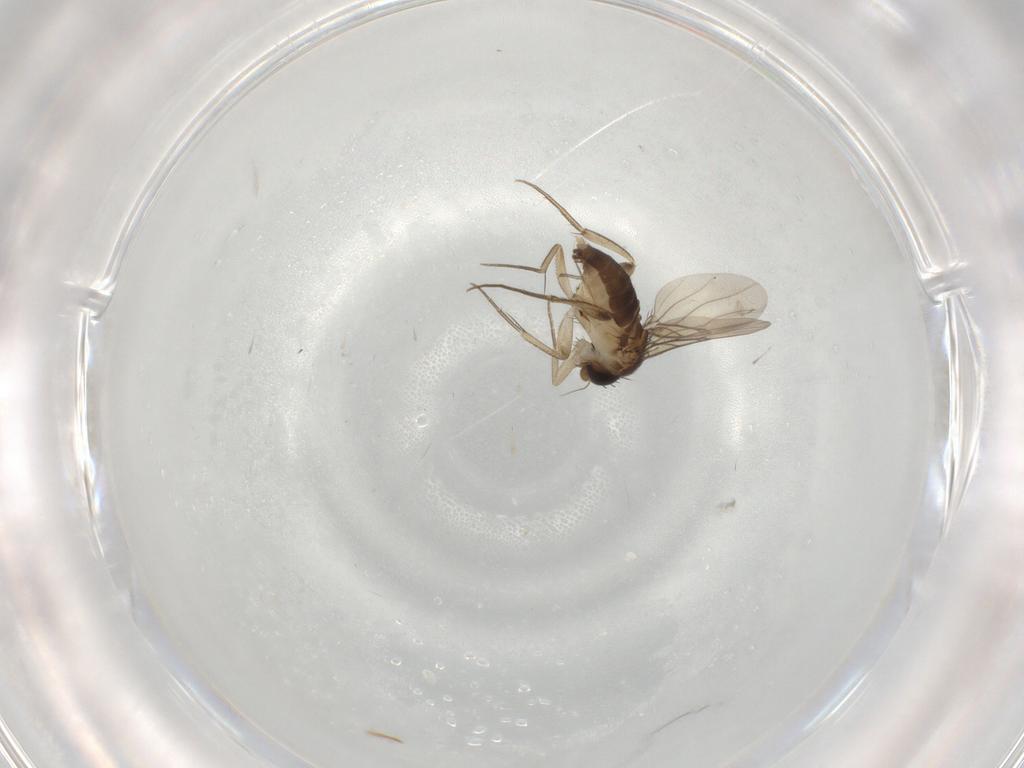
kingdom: Animalia
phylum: Arthropoda
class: Insecta
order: Diptera
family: Phoridae
